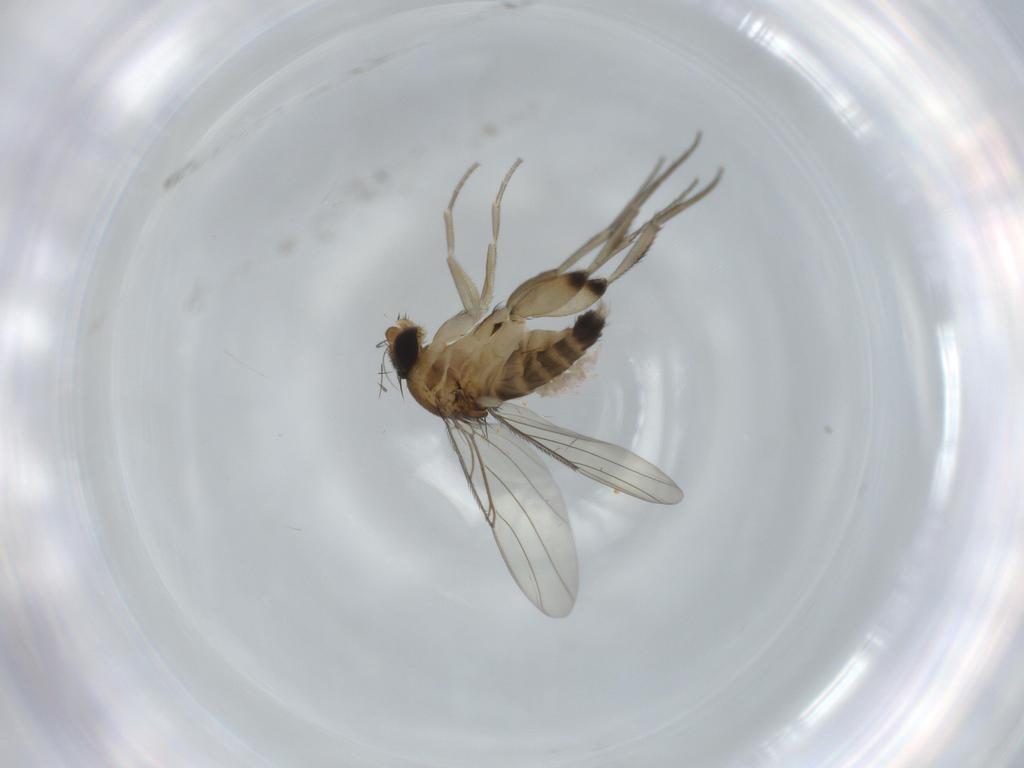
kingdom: Animalia
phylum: Arthropoda
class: Insecta
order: Diptera
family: Phoridae
